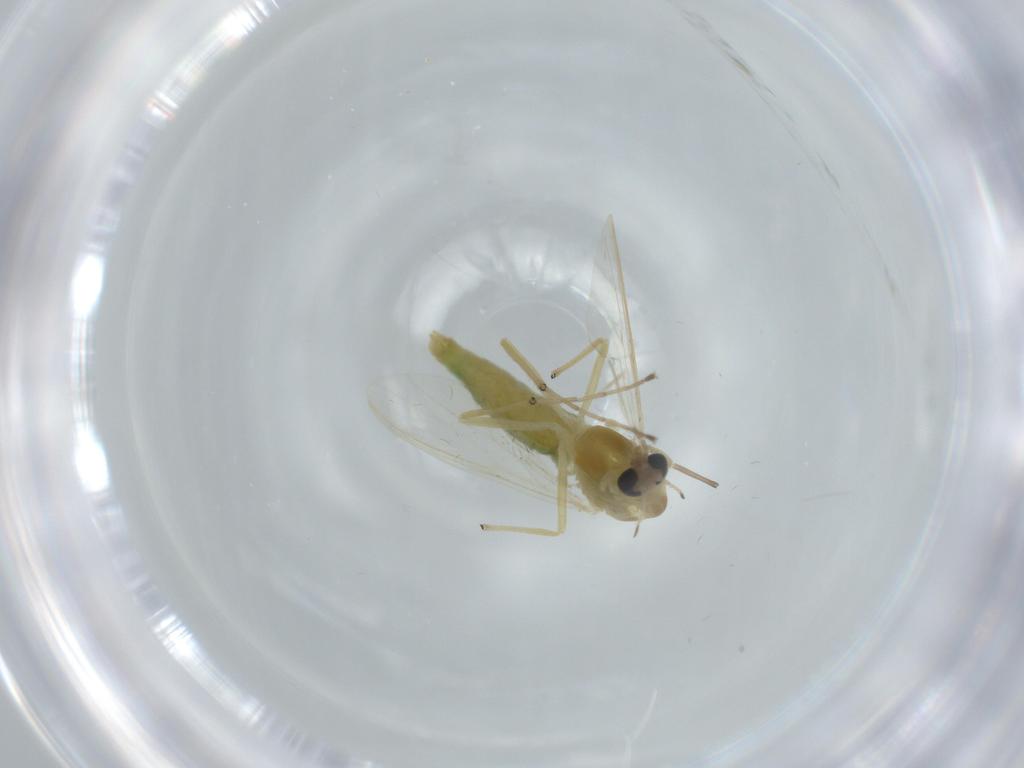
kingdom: Animalia
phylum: Arthropoda
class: Insecta
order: Diptera
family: Chironomidae
